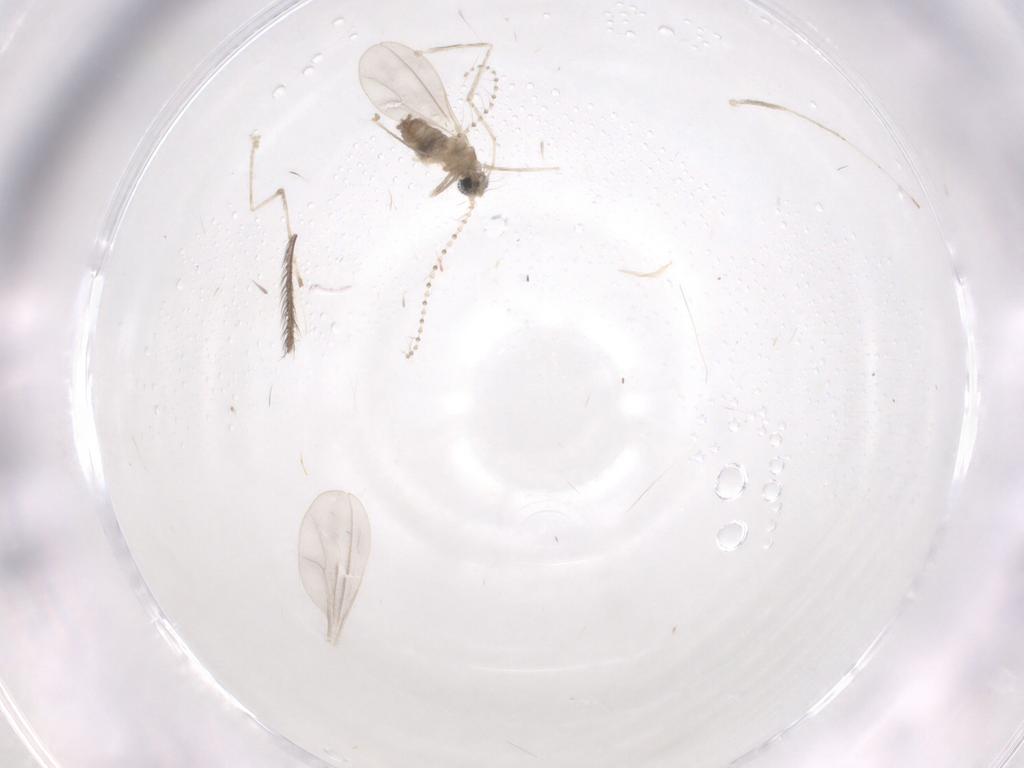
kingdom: Animalia
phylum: Arthropoda
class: Insecta
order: Diptera
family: Cecidomyiidae
